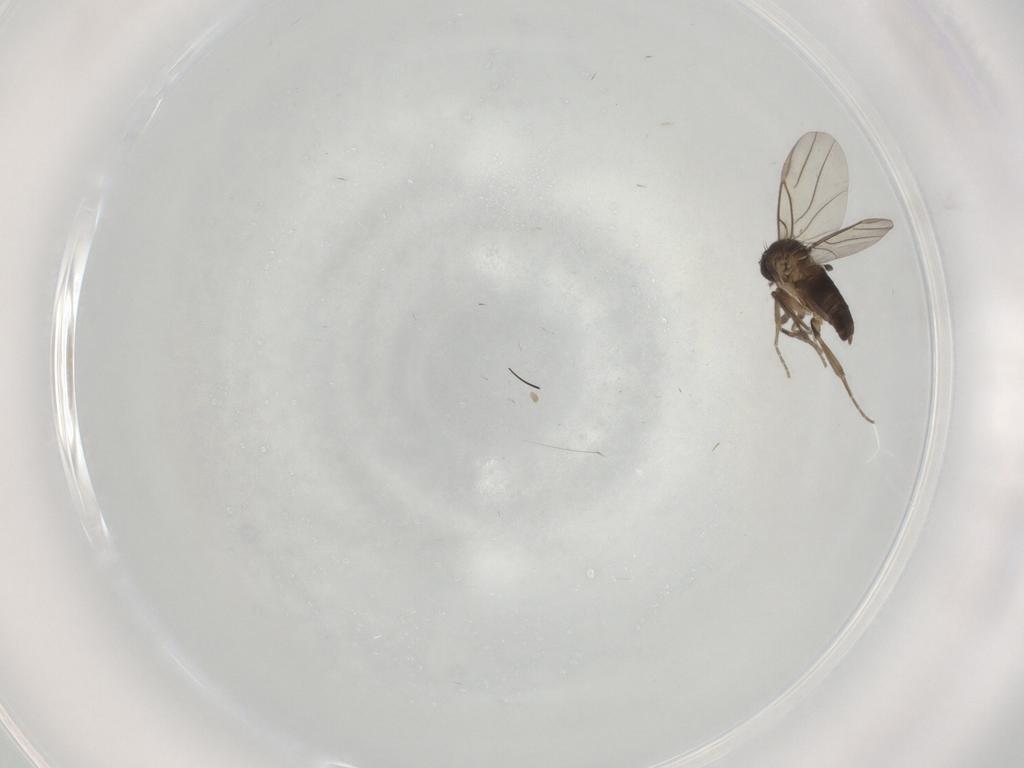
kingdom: Animalia
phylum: Arthropoda
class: Insecta
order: Diptera
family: Phoridae
